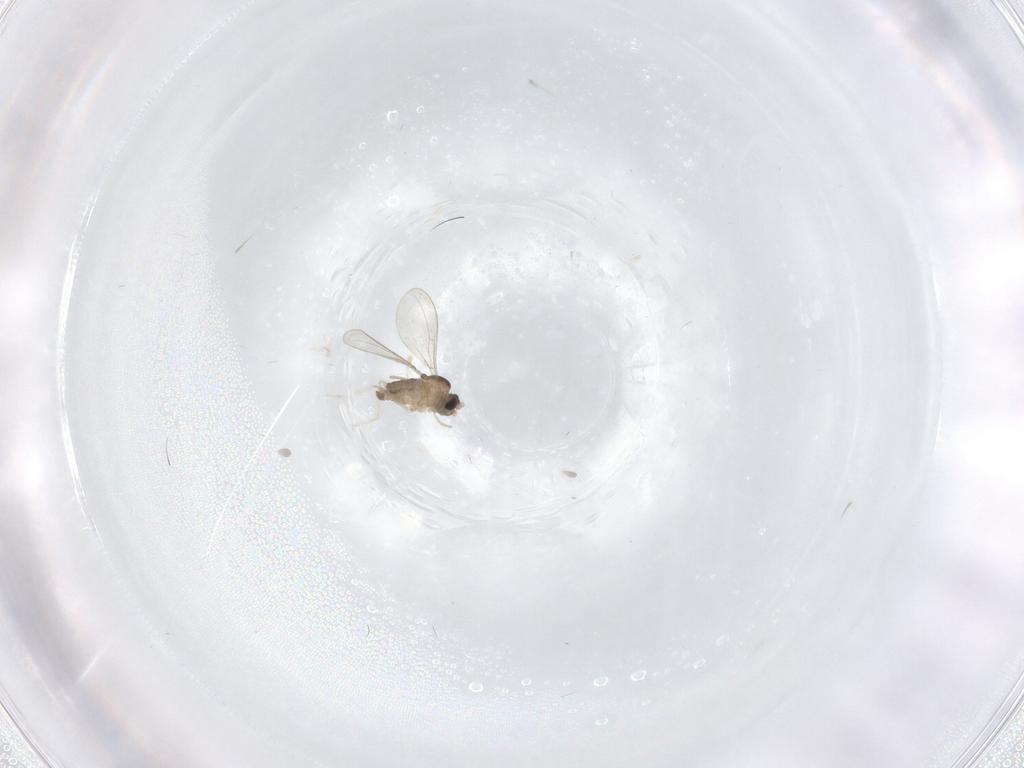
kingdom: Animalia
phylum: Arthropoda
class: Insecta
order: Diptera
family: Cecidomyiidae
